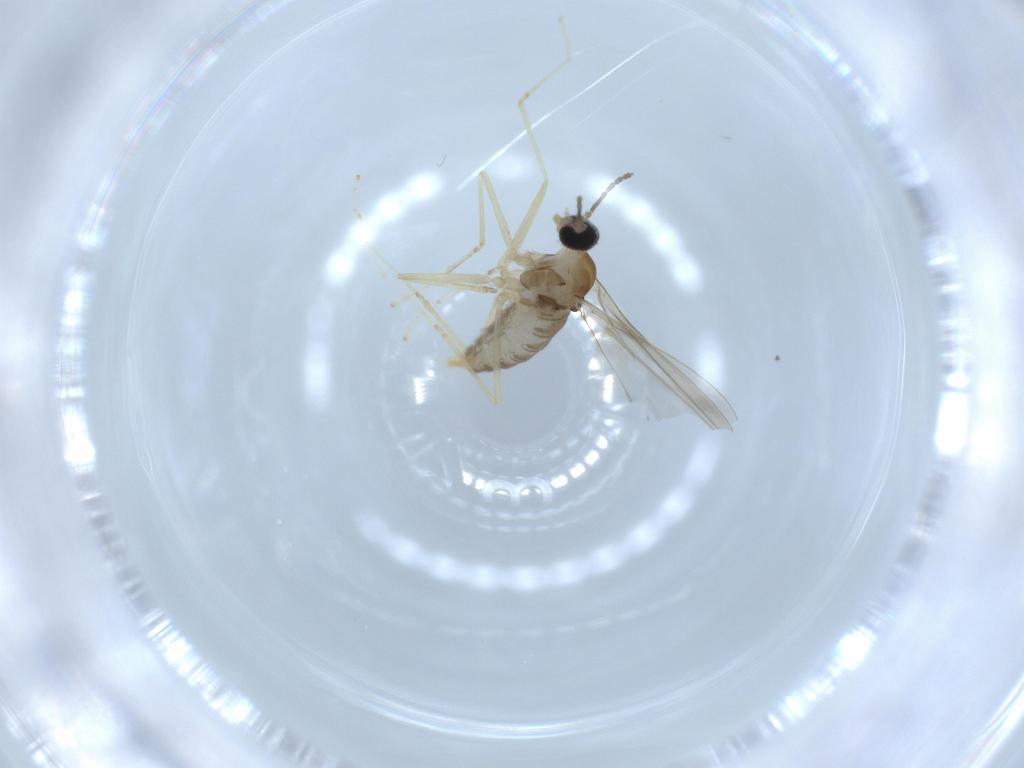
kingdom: Animalia
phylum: Arthropoda
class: Insecta
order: Diptera
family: Cecidomyiidae
